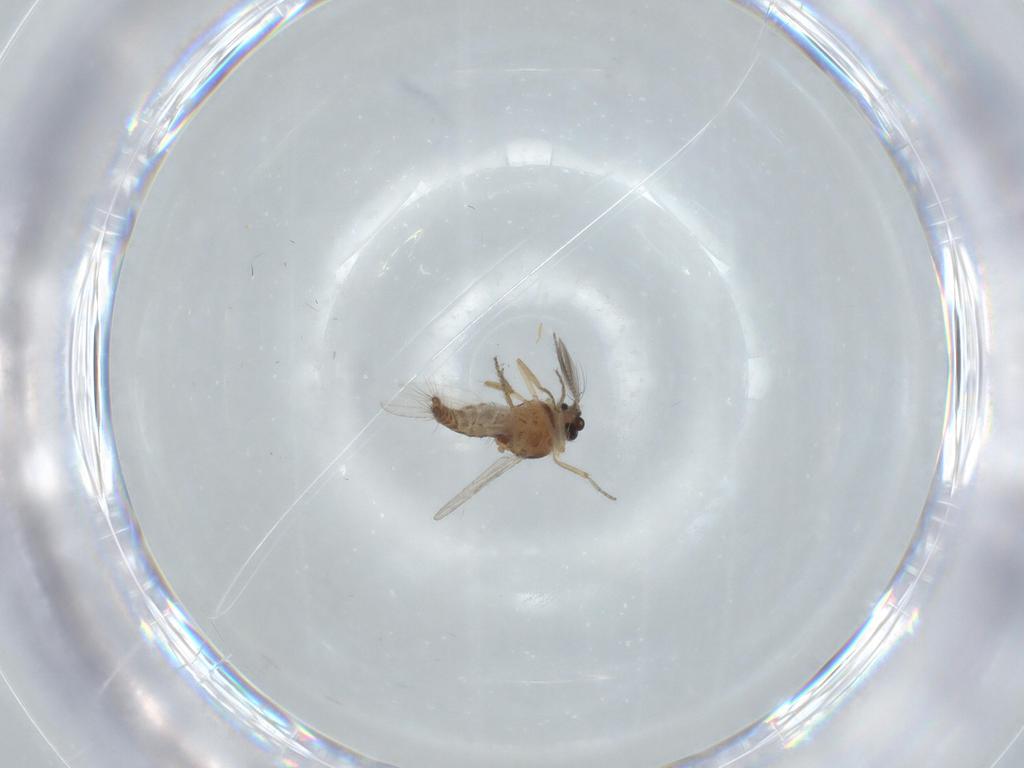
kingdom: Animalia
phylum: Arthropoda
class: Insecta
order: Diptera
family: Ceratopogonidae
